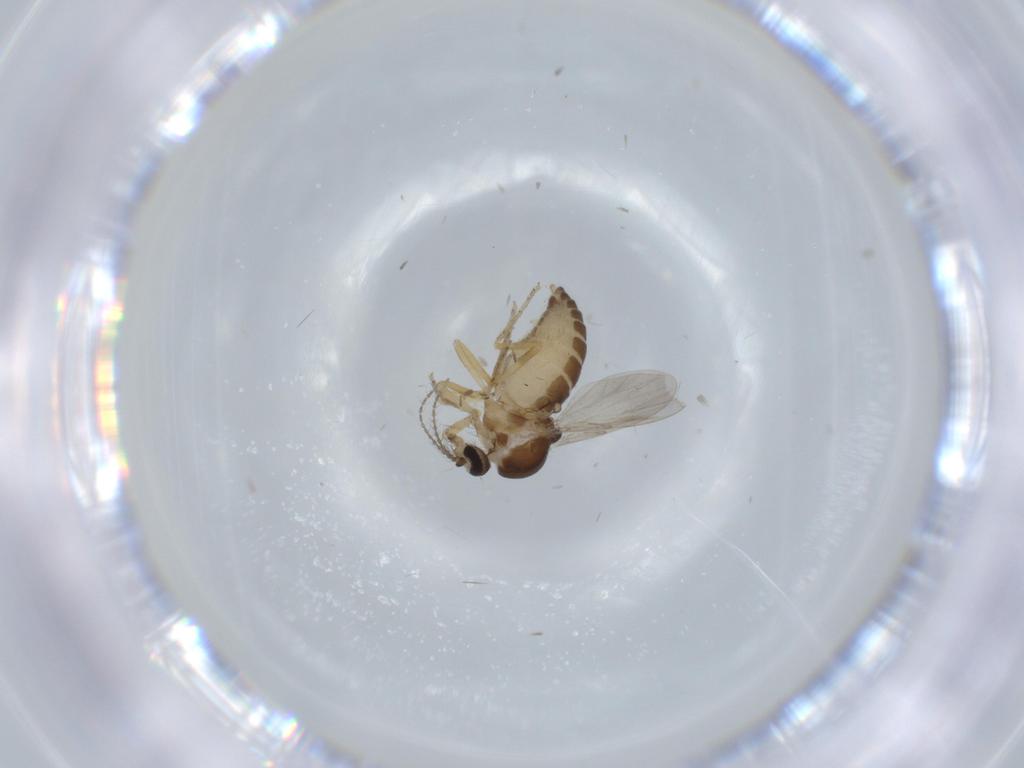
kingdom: Animalia
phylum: Arthropoda
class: Insecta
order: Diptera
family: Ceratopogonidae
